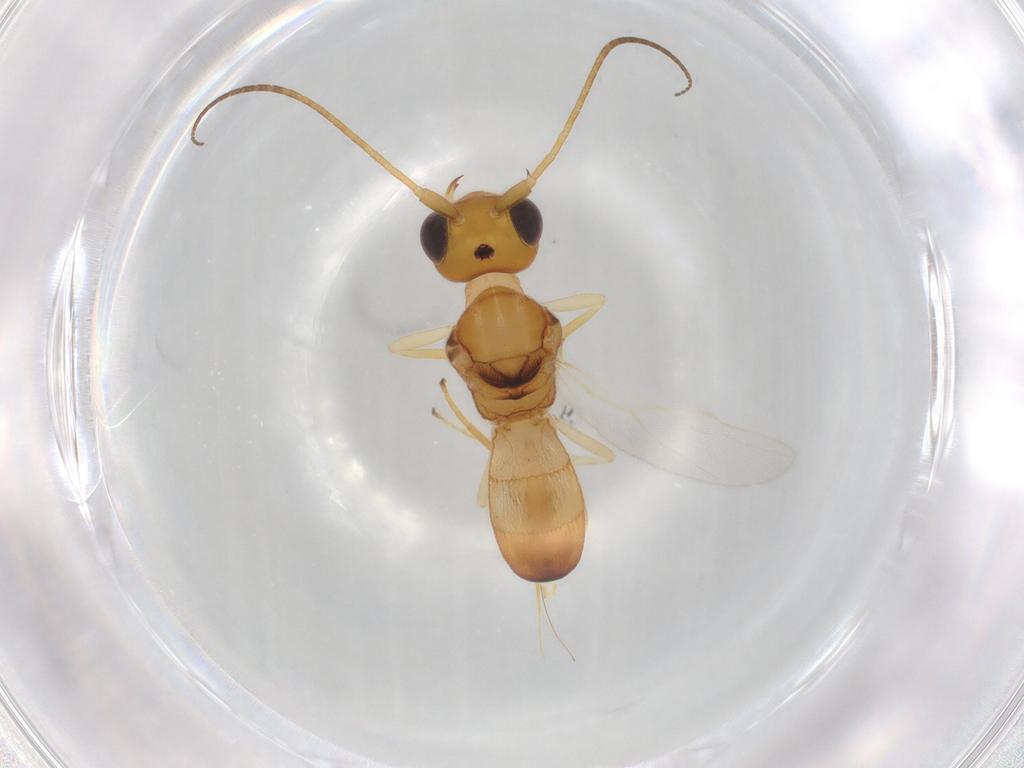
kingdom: Animalia
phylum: Arthropoda
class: Insecta
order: Hymenoptera
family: Braconidae
